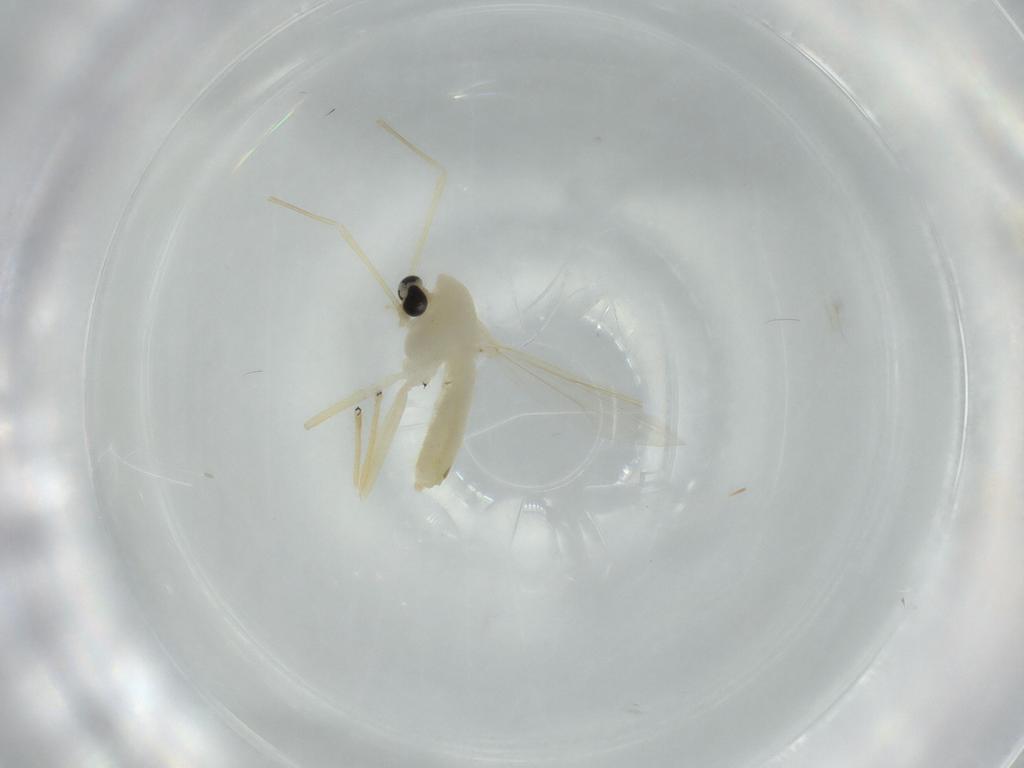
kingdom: Animalia
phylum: Arthropoda
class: Insecta
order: Diptera
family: Chironomidae
